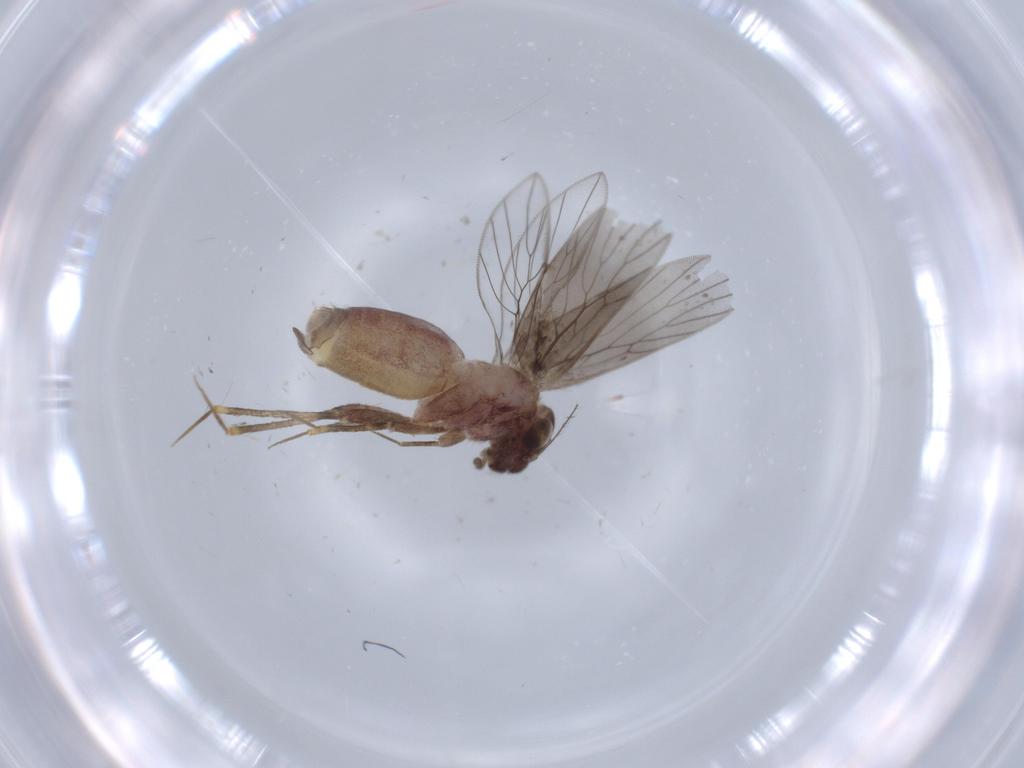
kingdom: Animalia
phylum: Arthropoda
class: Insecta
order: Psocodea
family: Lepidopsocidae
